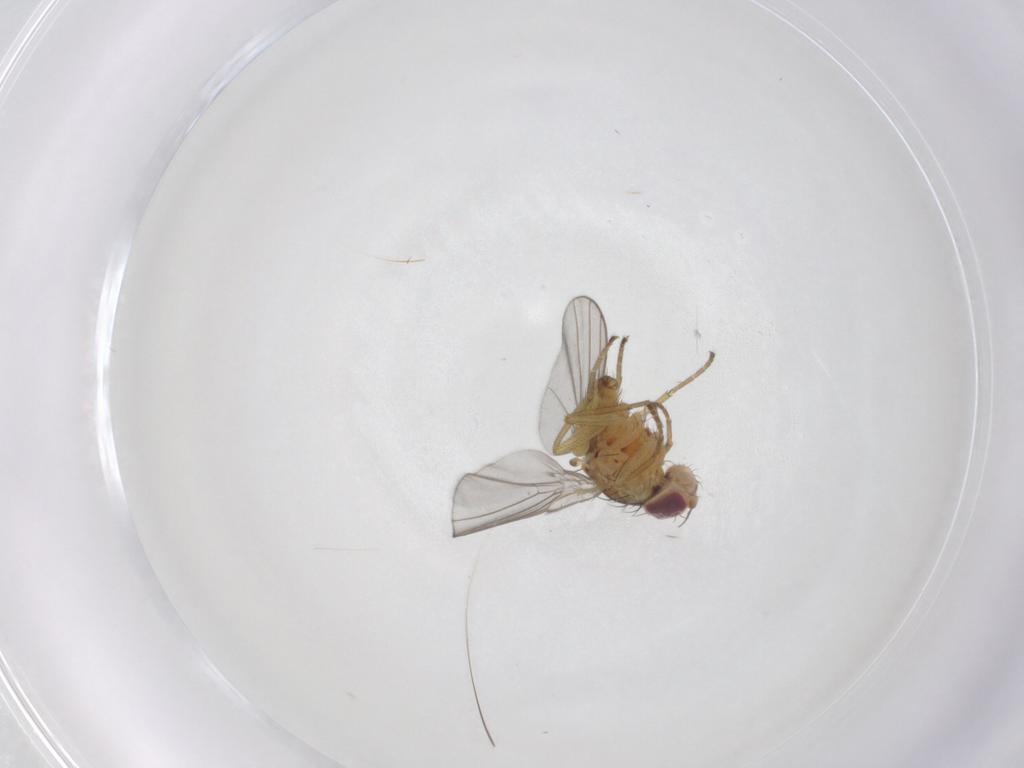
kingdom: Animalia
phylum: Arthropoda
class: Insecta
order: Diptera
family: Agromyzidae
